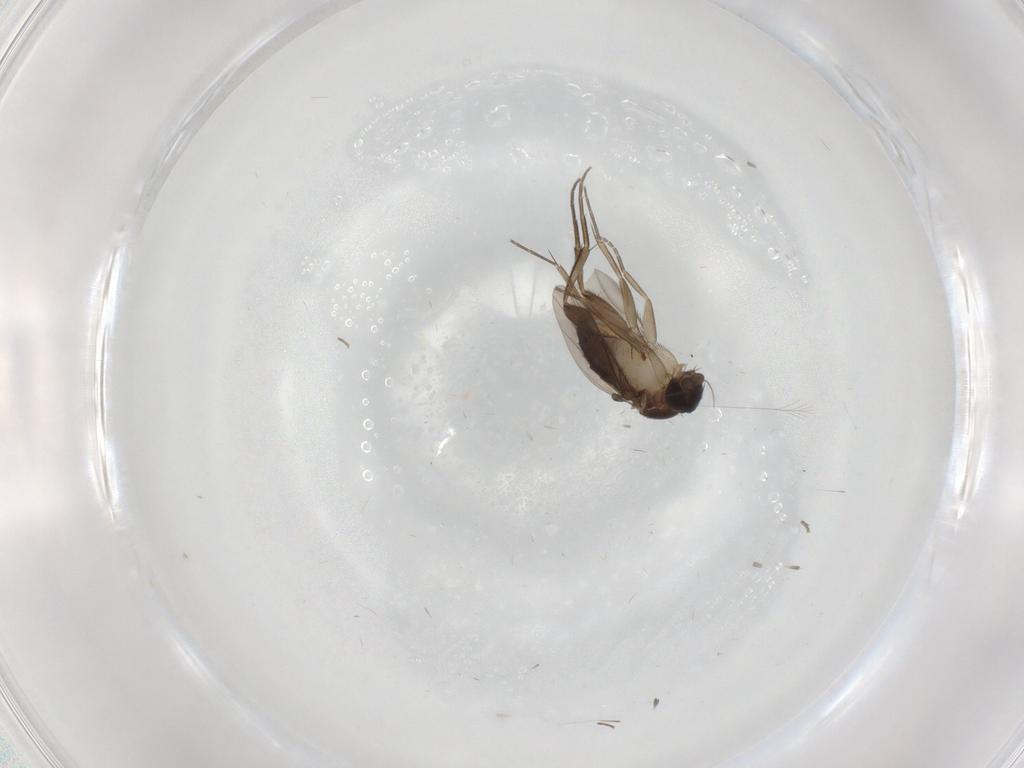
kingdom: Animalia
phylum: Arthropoda
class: Insecta
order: Diptera
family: Phoridae
